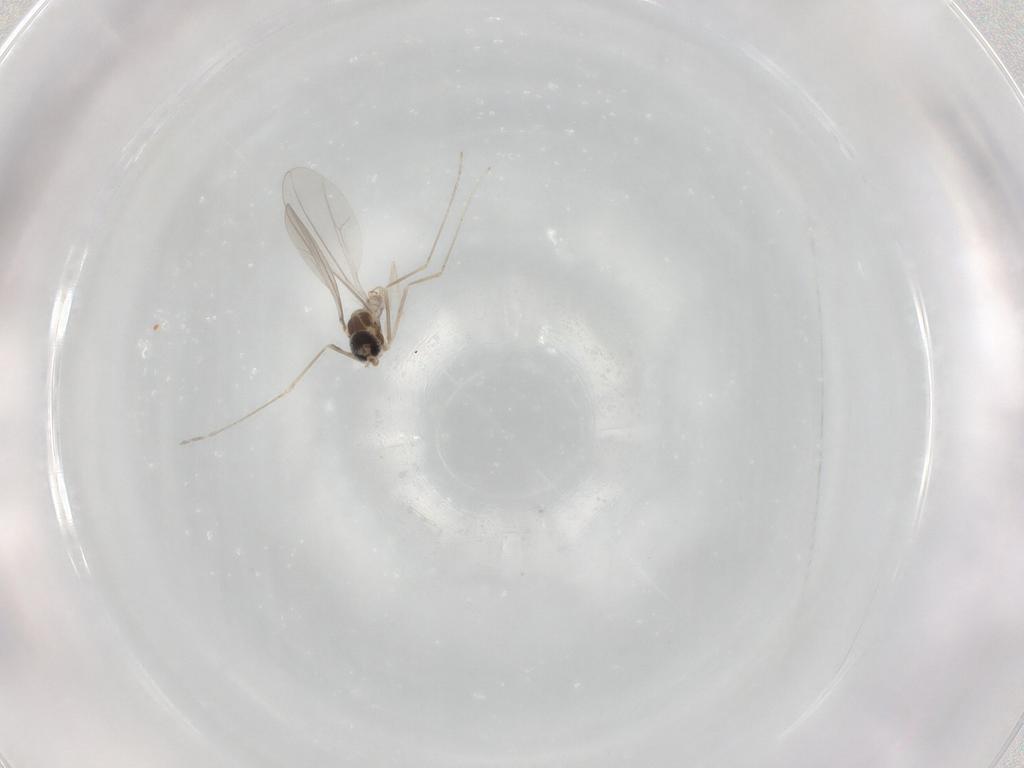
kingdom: Animalia
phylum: Arthropoda
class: Insecta
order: Diptera
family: Cecidomyiidae
